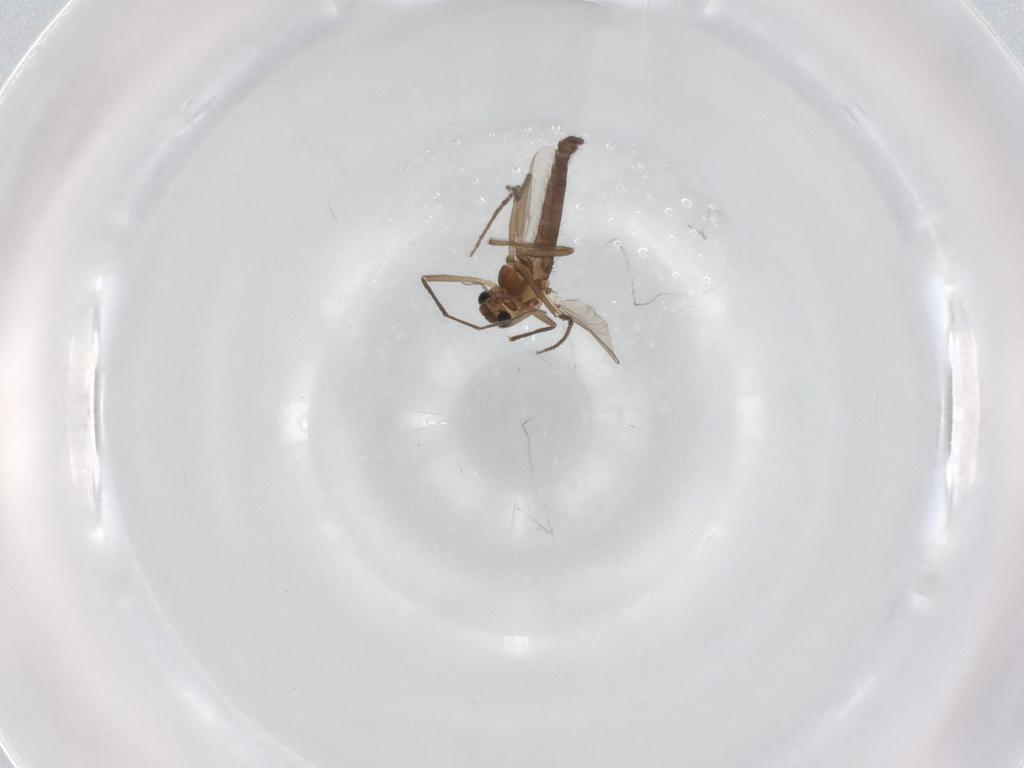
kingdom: Animalia
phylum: Arthropoda
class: Insecta
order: Diptera
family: Chironomidae
